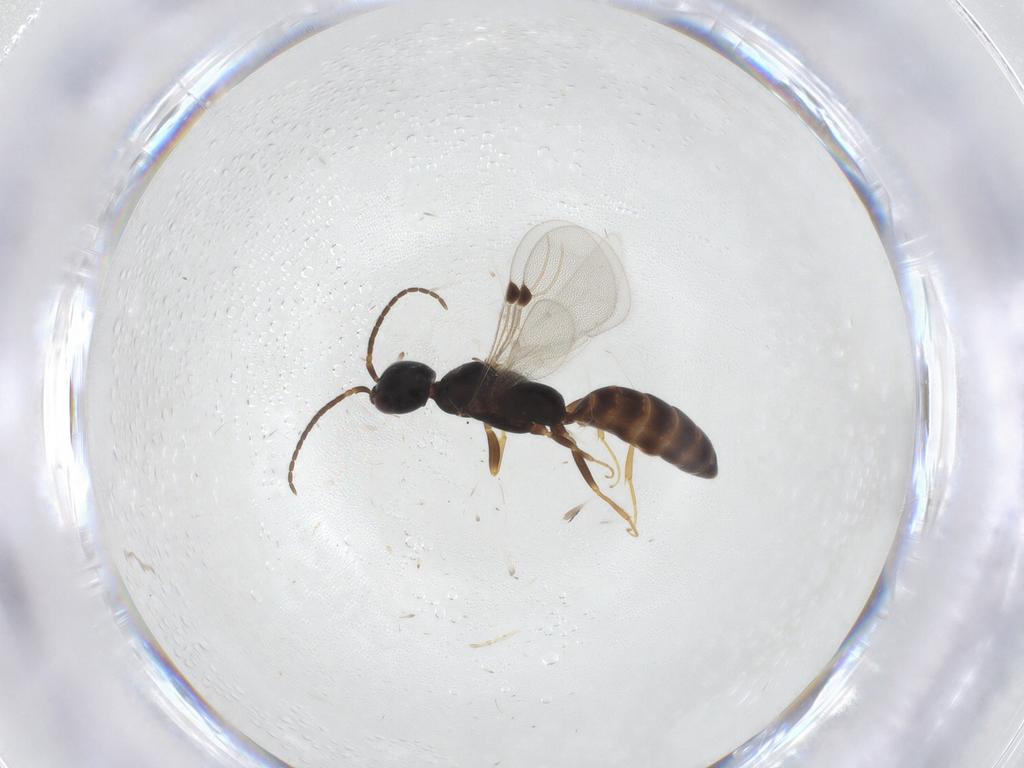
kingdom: Animalia
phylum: Arthropoda
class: Insecta
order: Hymenoptera
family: Bethylidae
